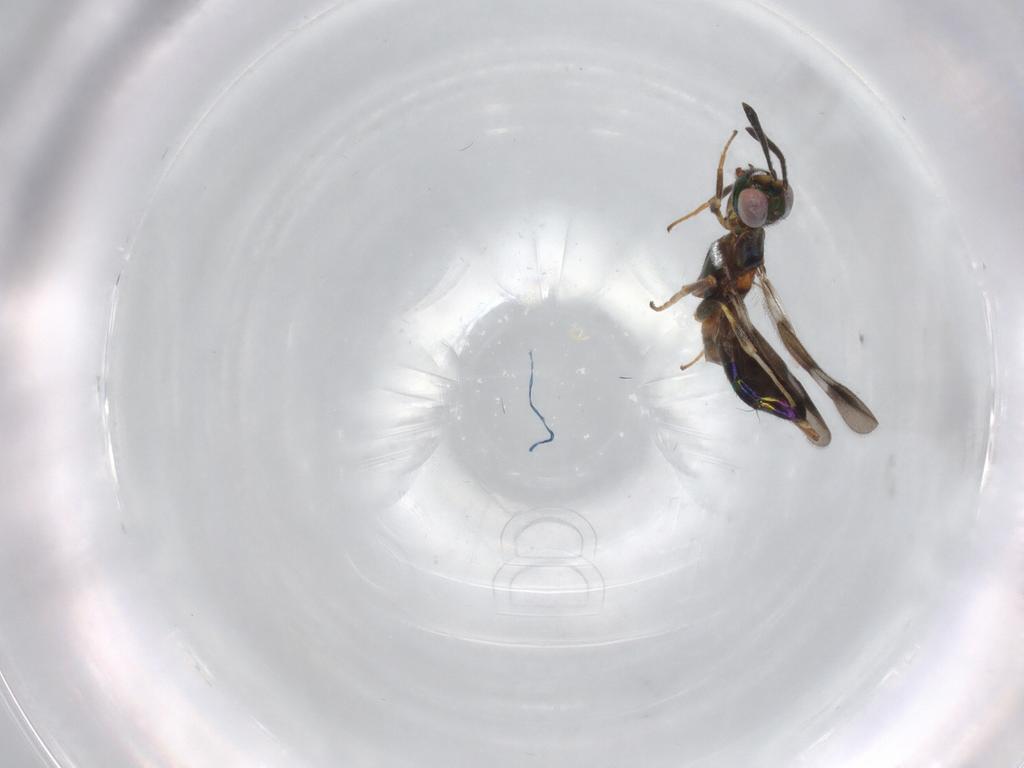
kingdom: Animalia
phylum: Arthropoda
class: Insecta
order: Hymenoptera
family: Eupelmidae
